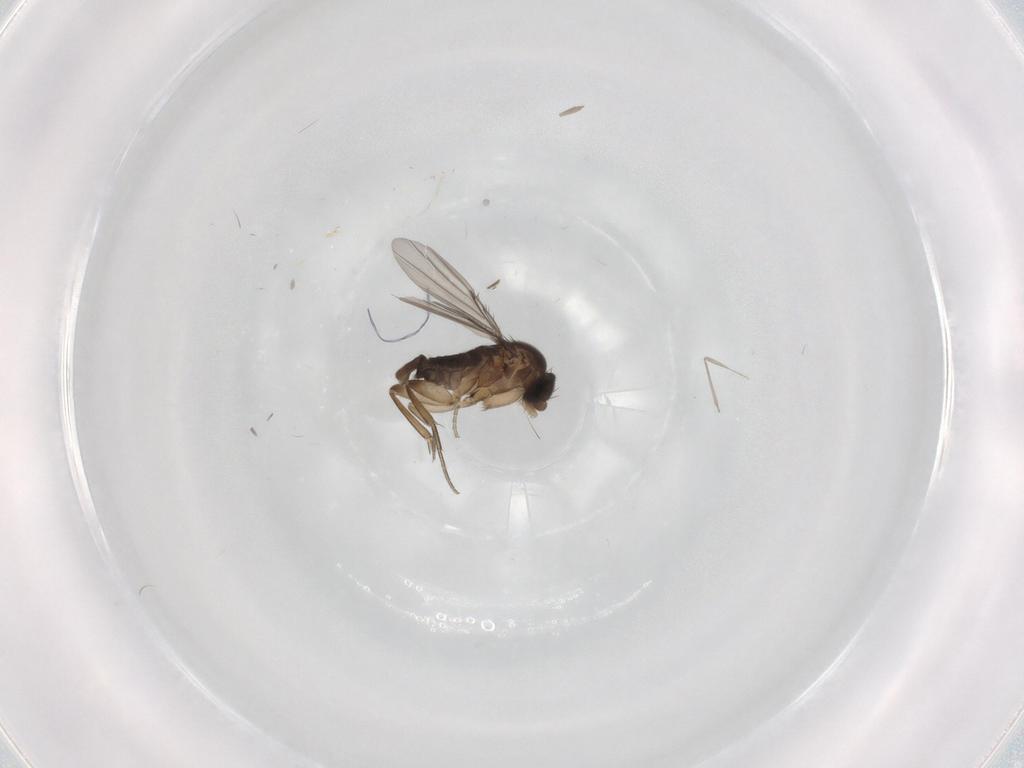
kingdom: Animalia
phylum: Arthropoda
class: Insecta
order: Diptera
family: Phoridae
